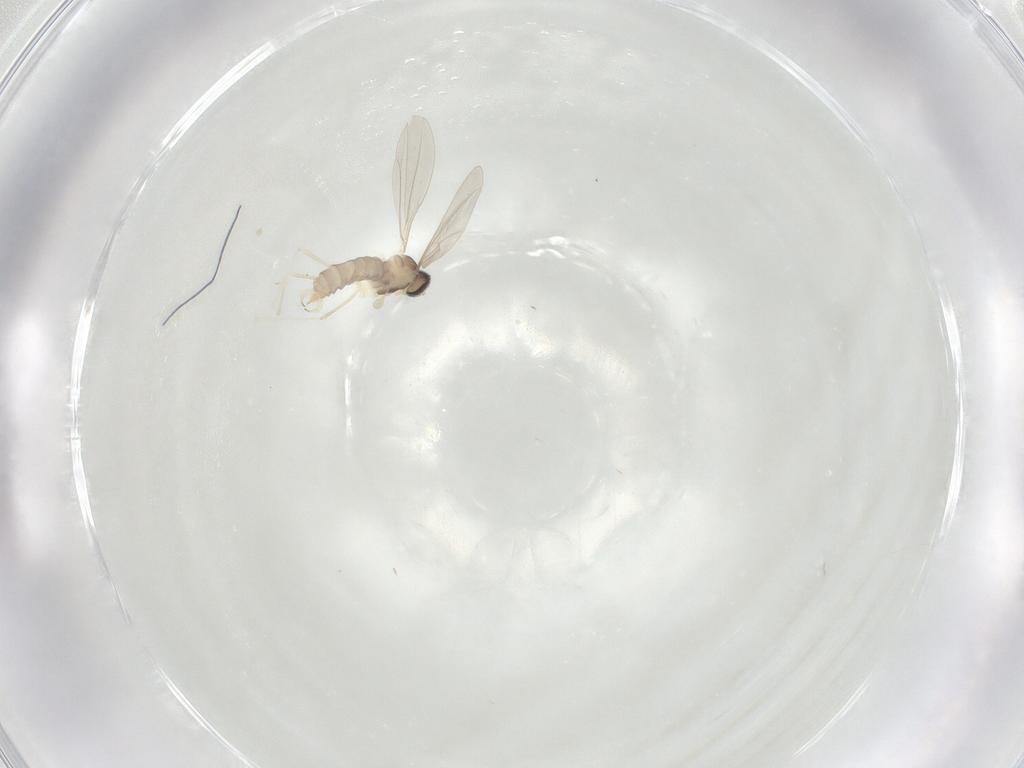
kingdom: Animalia
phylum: Arthropoda
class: Insecta
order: Diptera
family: Cecidomyiidae
